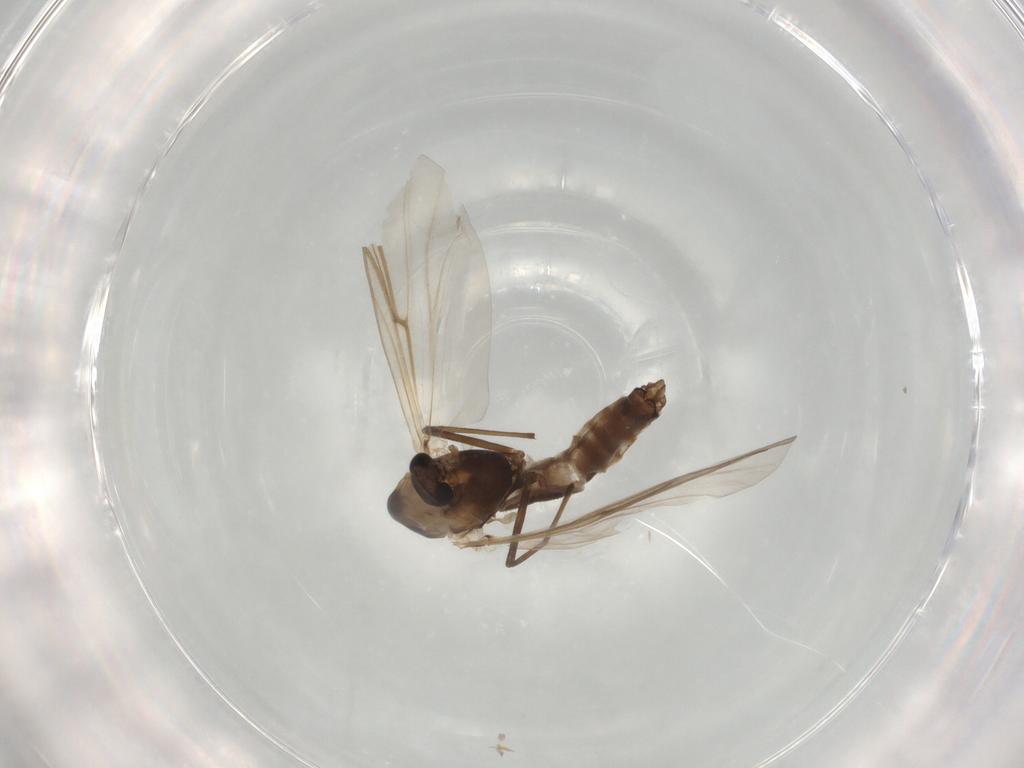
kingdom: Animalia
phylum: Arthropoda
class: Insecta
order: Diptera
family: Chironomidae
